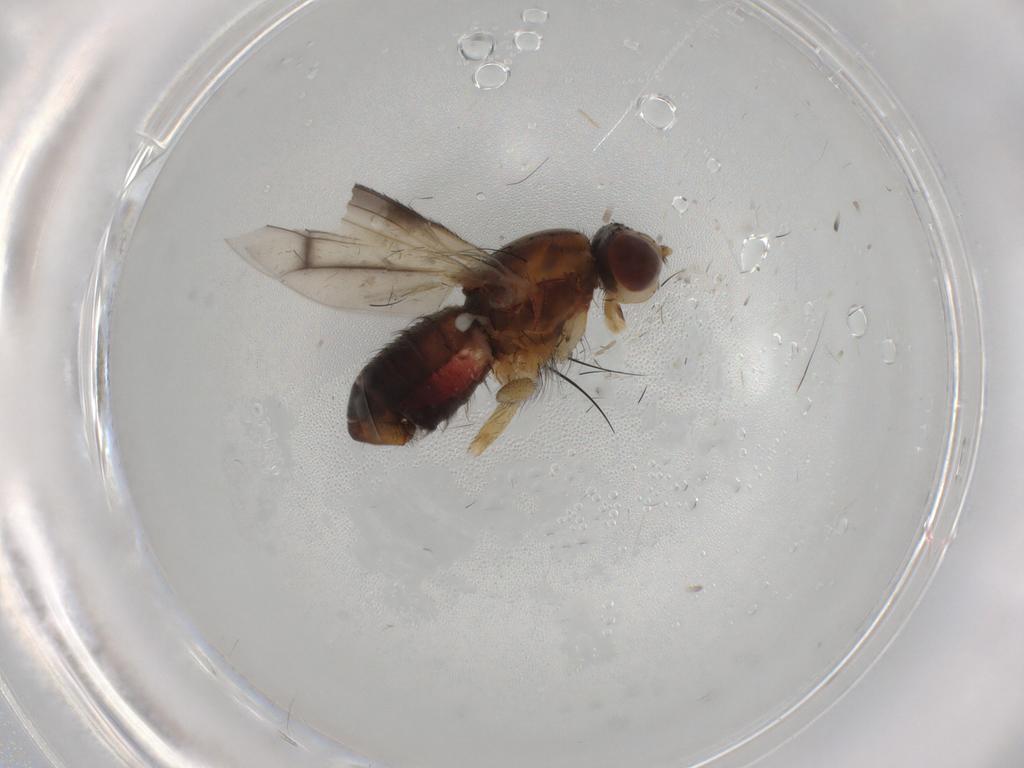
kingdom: Animalia
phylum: Arthropoda
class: Insecta
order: Diptera
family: Heleomyzidae
